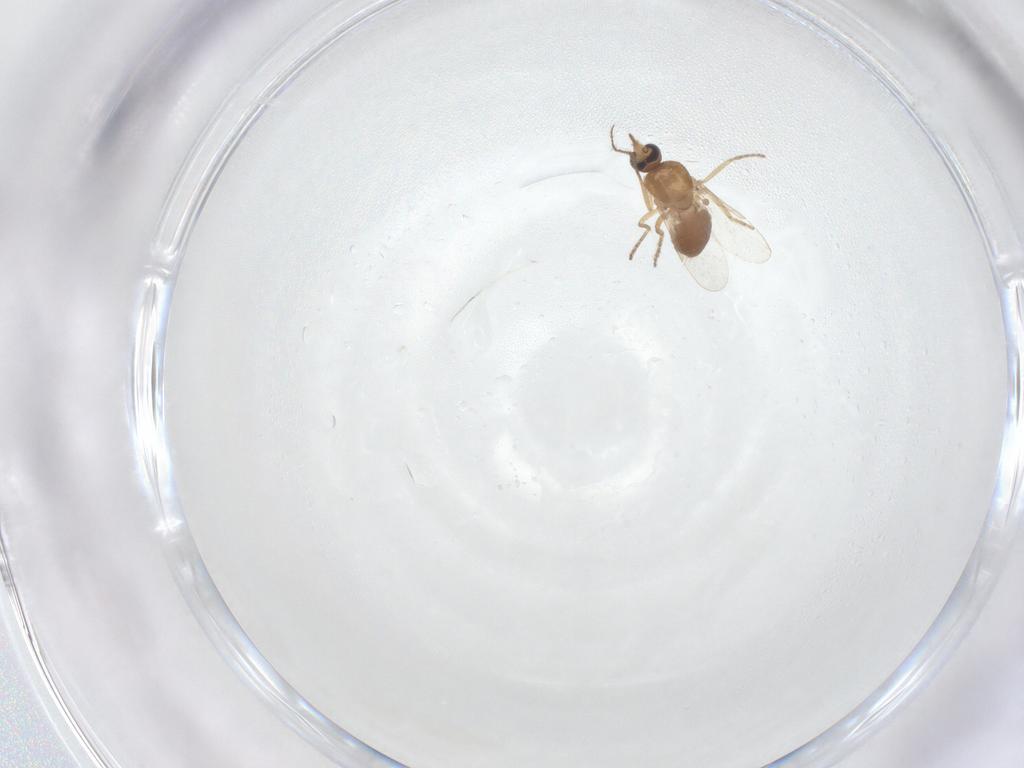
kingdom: Animalia
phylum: Arthropoda
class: Insecta
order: Diptera
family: Ceratopogonidae
